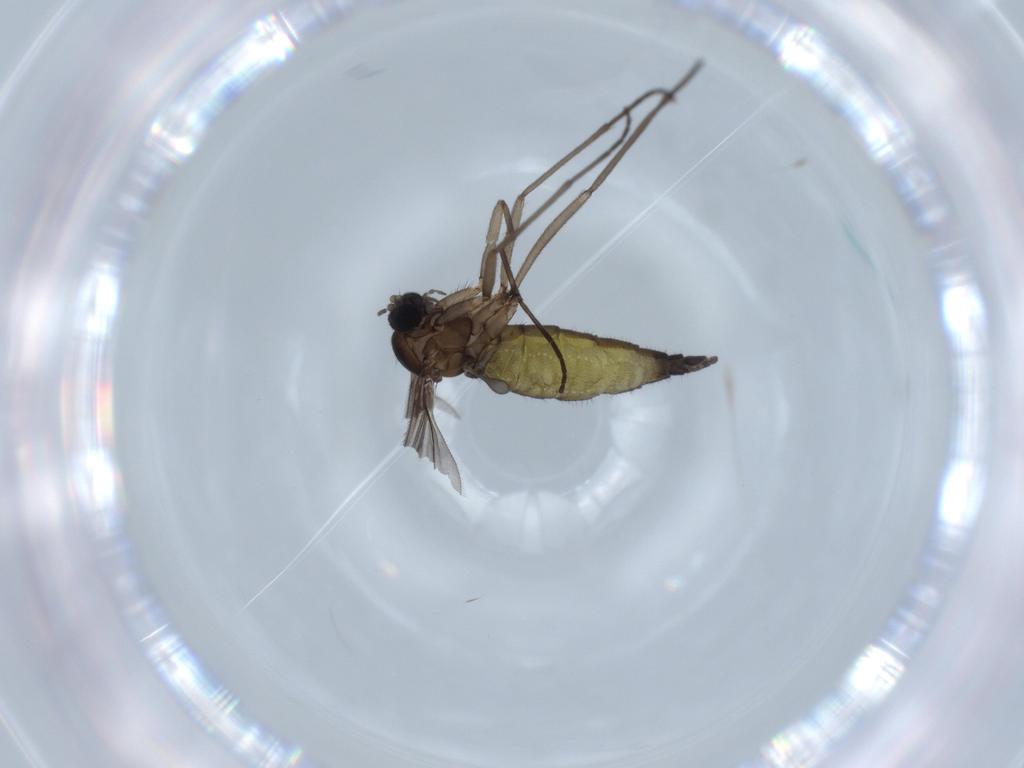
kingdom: Animalia
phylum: Arthropoda
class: Insecta
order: Diptera
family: Sciaridae
